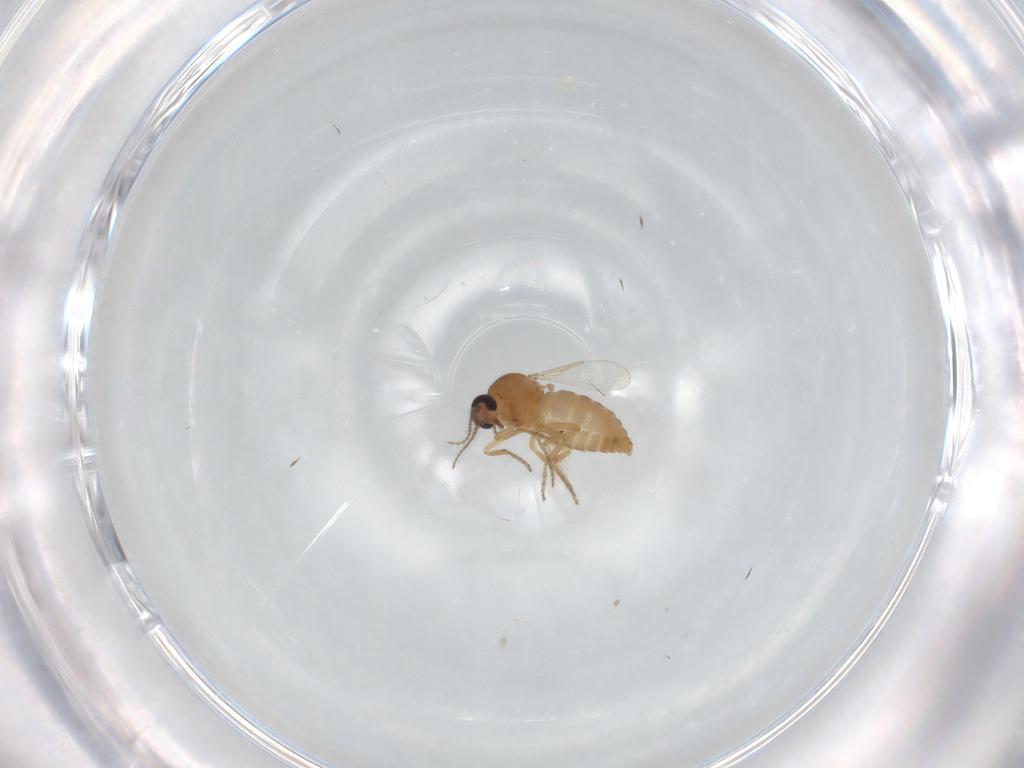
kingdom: Animalia
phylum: Arthropoda
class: Insecta
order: Diptera
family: Ceratopogonidae
